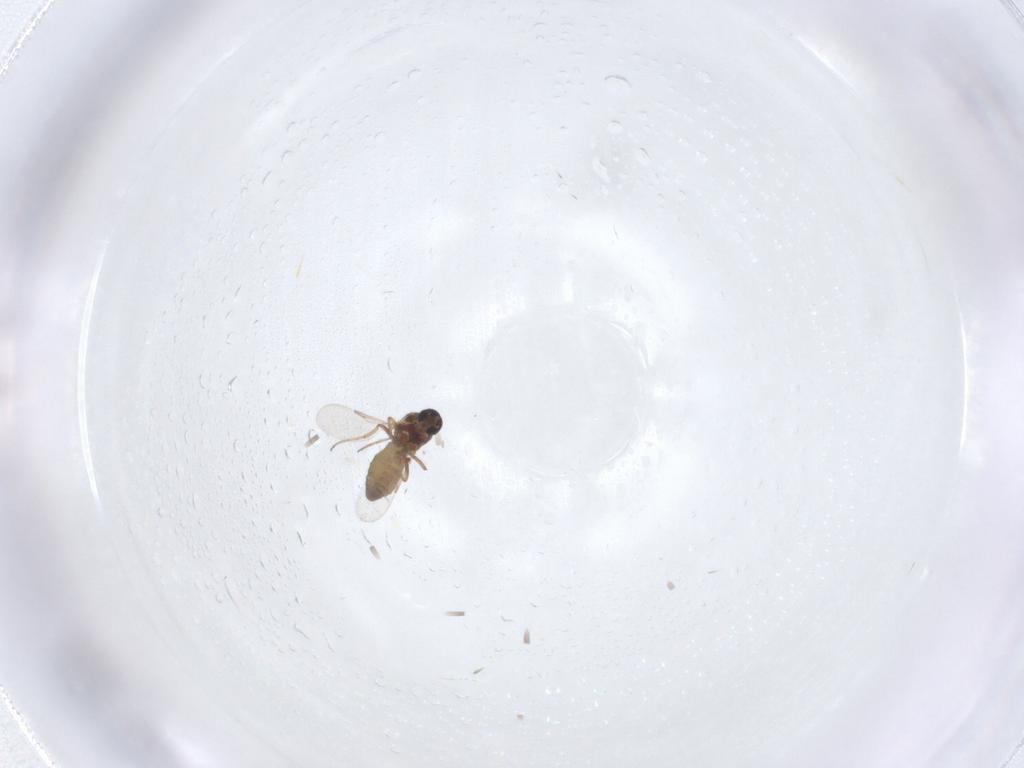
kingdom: Animalia
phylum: Arthropoda
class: Insecta
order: Diptera
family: Ceratopogonidae
